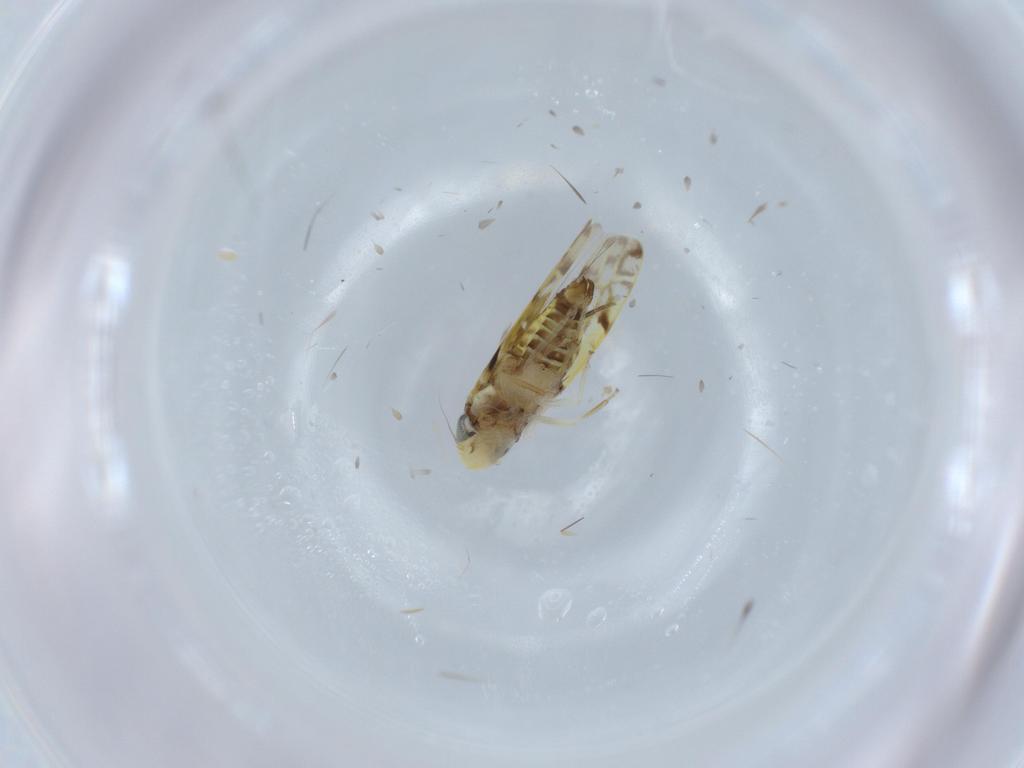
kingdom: Animalia
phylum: Arthropoda
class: Insecta
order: Hemiptera
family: Cicadellidae
